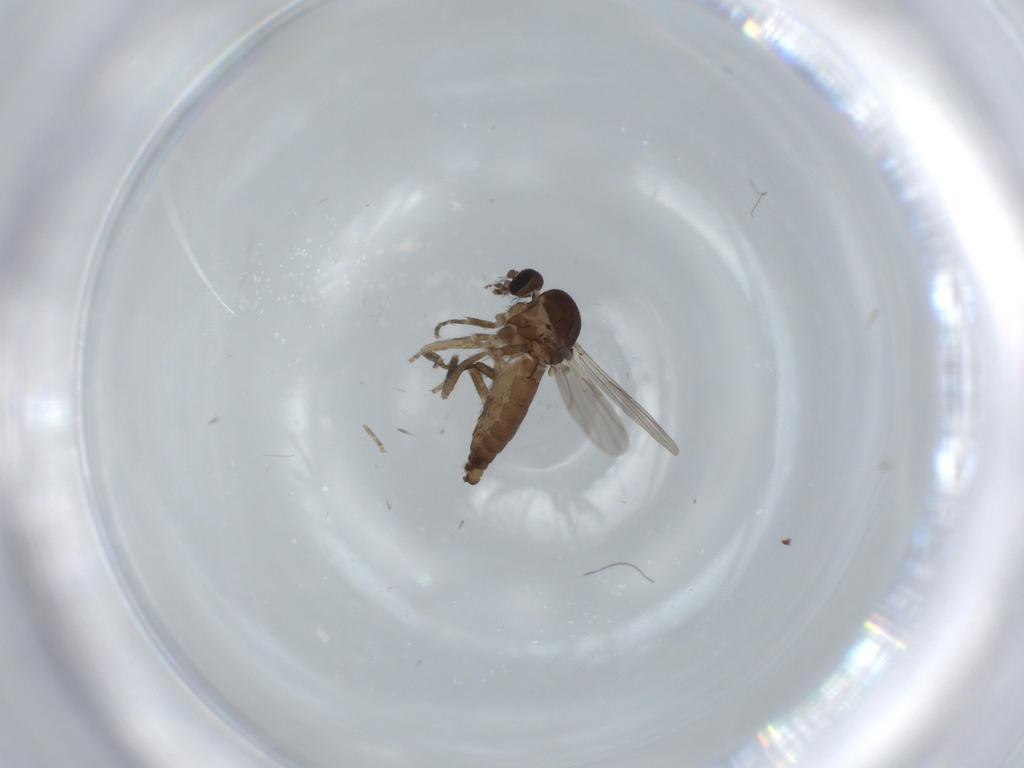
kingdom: Animalia
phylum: Arthropoda
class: Insecta
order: Diptera
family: Ceratopogonidae
